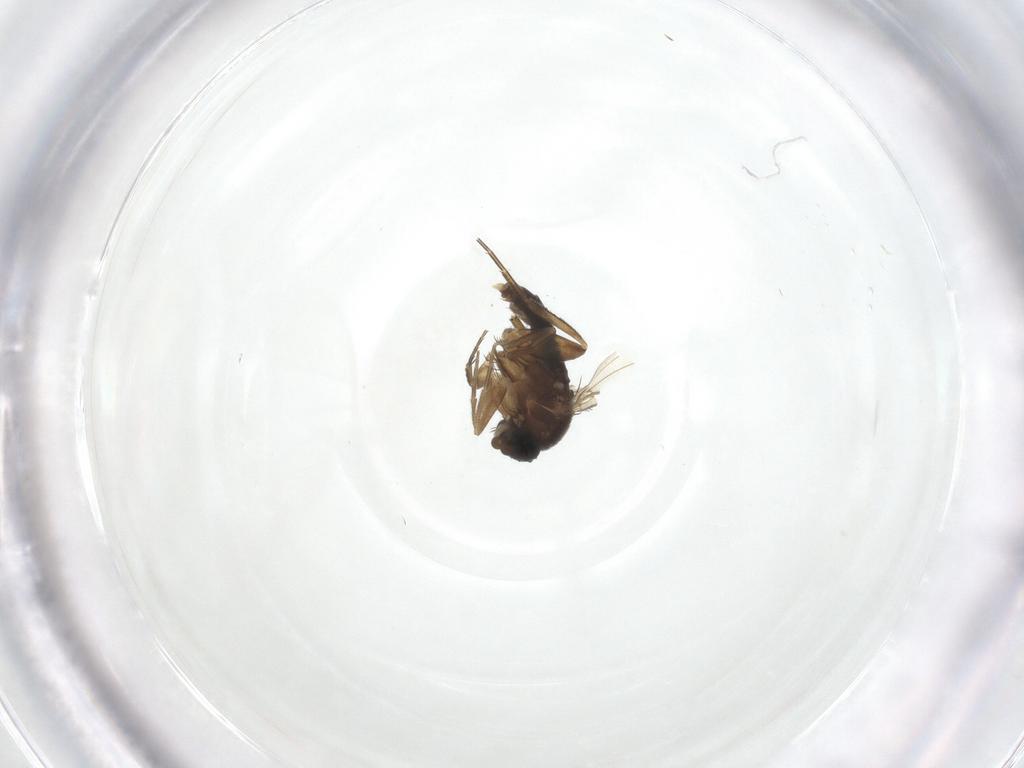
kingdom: Animalia
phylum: Arthropoda
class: Insecta
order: Diptera
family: Phoridae
